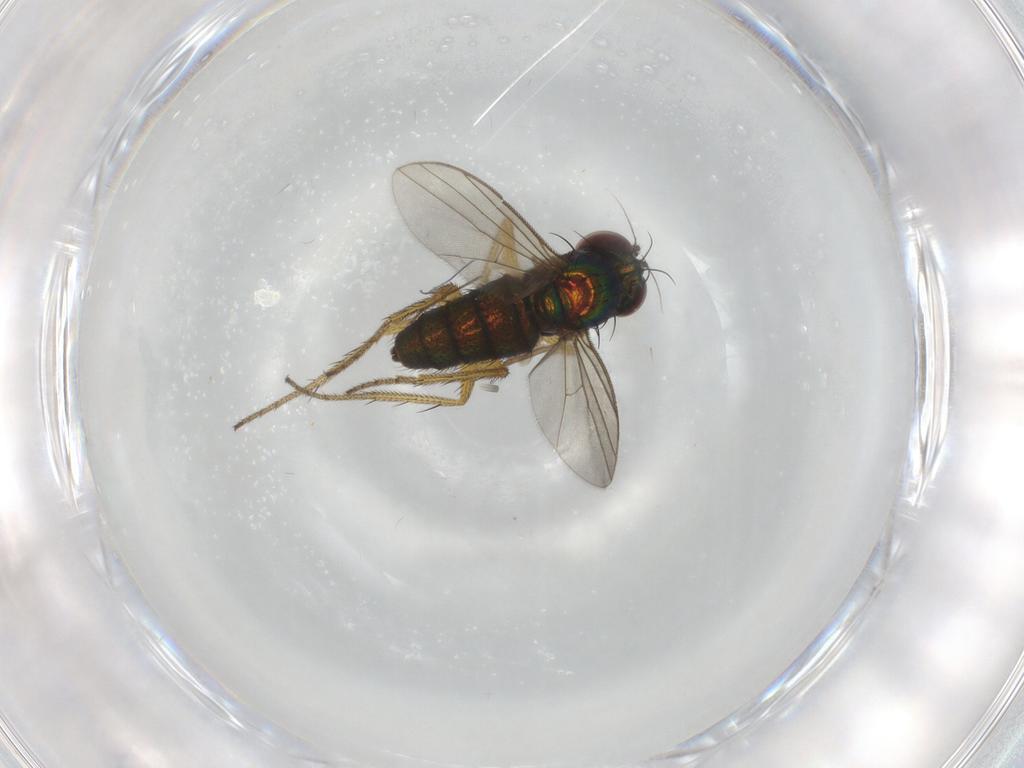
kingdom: Animalia
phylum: Arthropoda
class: Insecta
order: Diptera
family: Chironomidae
